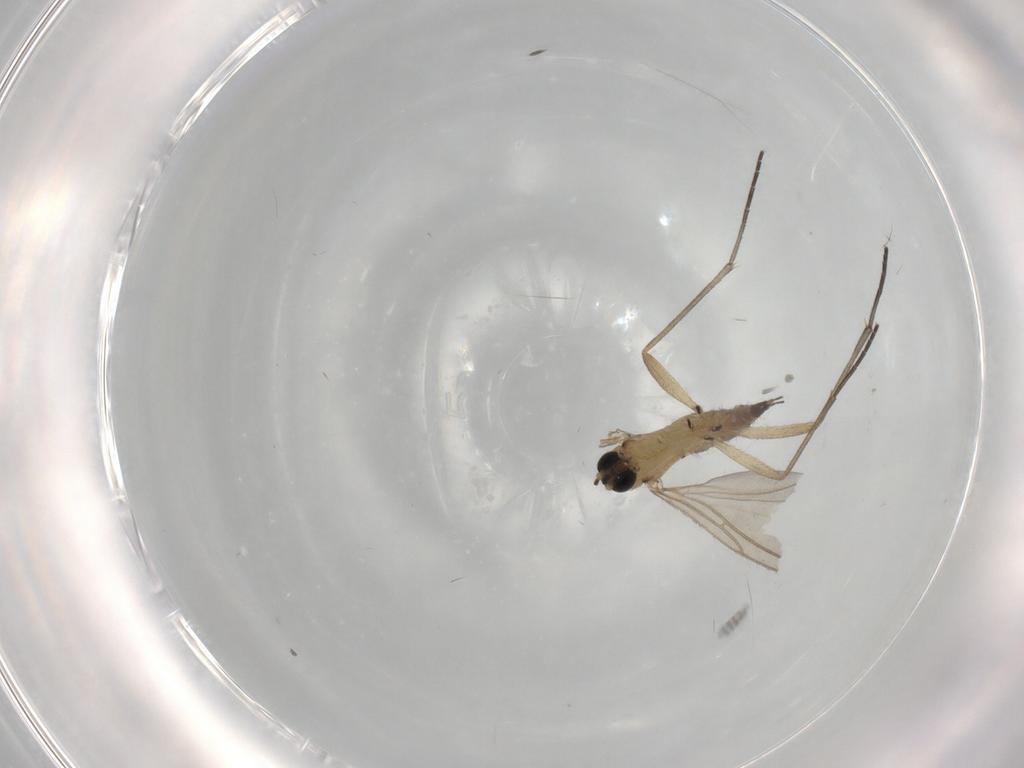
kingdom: Animalia
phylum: Arthropoda
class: Insecta
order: Diptera
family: Sciaridae
